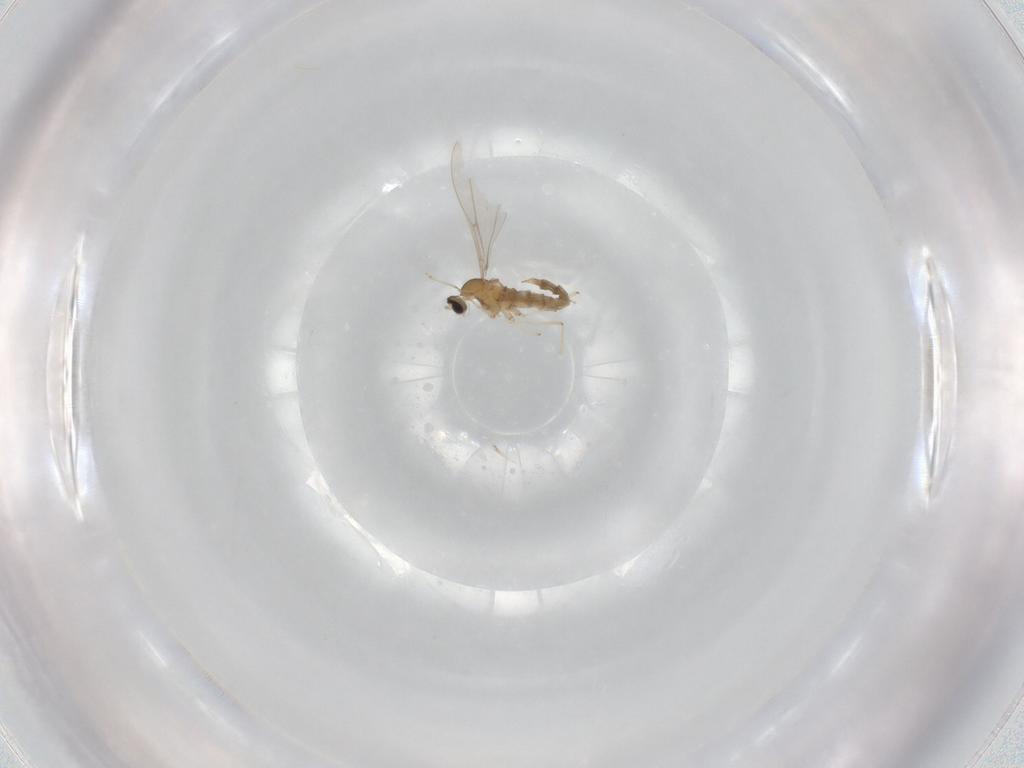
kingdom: Animalia
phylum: Arthropoda
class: Insecta
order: Diptera
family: Cecidomyiidae
